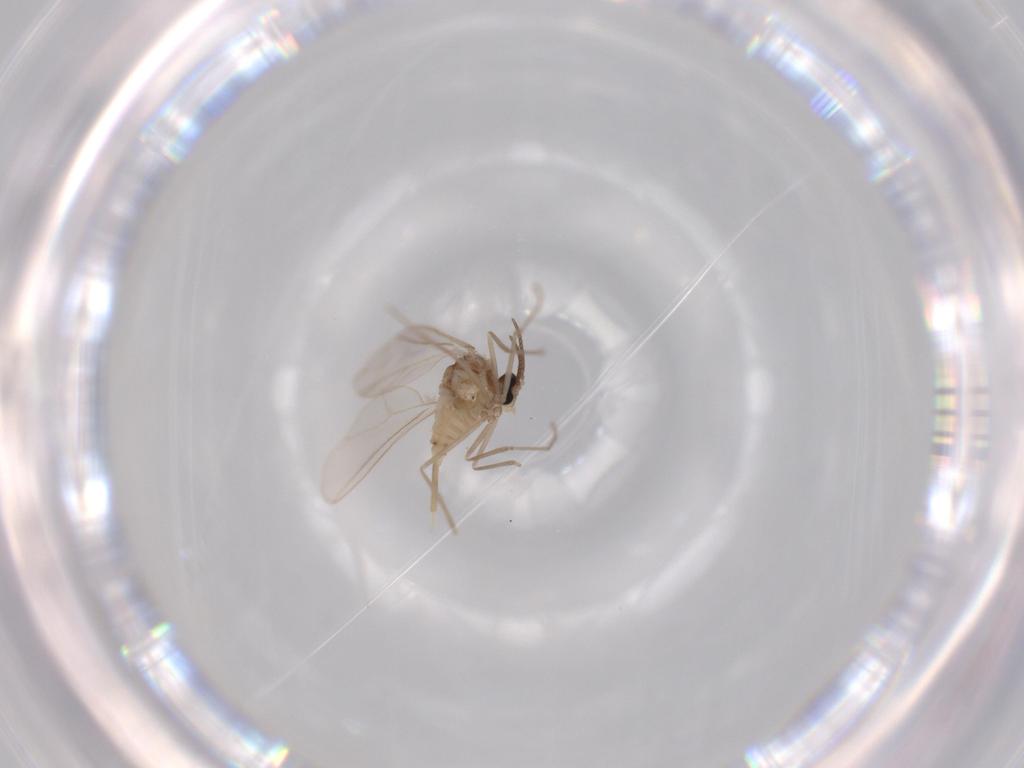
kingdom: Animalia
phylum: Arthropoda
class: Insecta
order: Diptera
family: Cecidomyiidae
